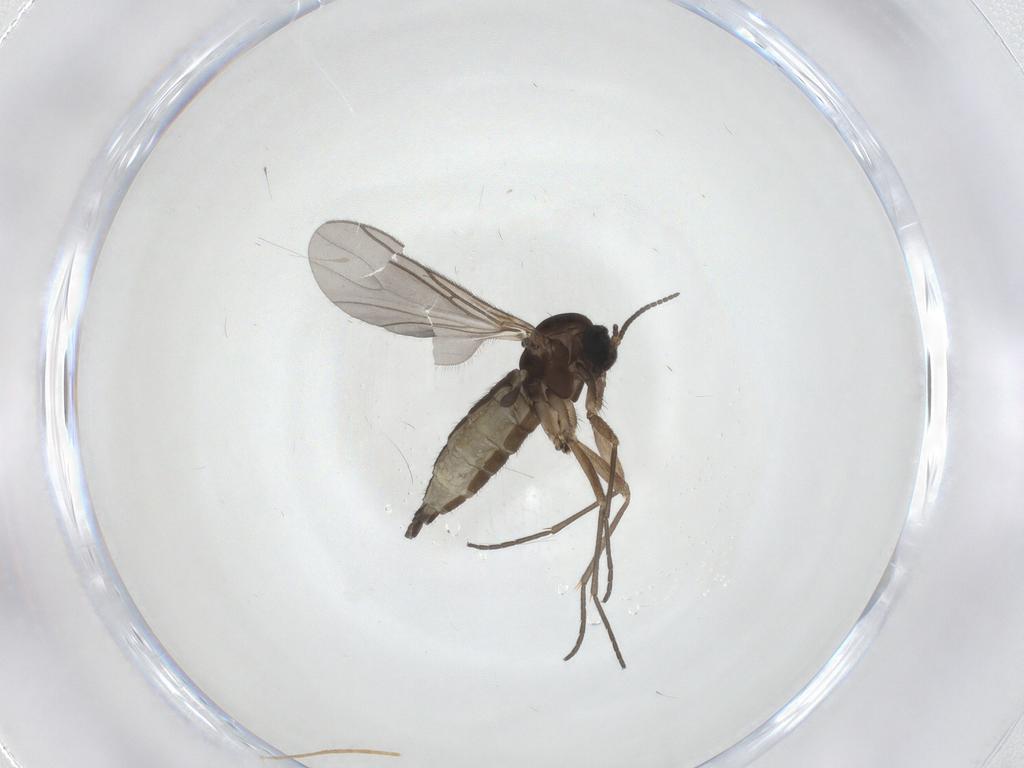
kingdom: Animalia
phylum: Arthropoda
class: Insecta
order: Diptera
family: Sciaridae
